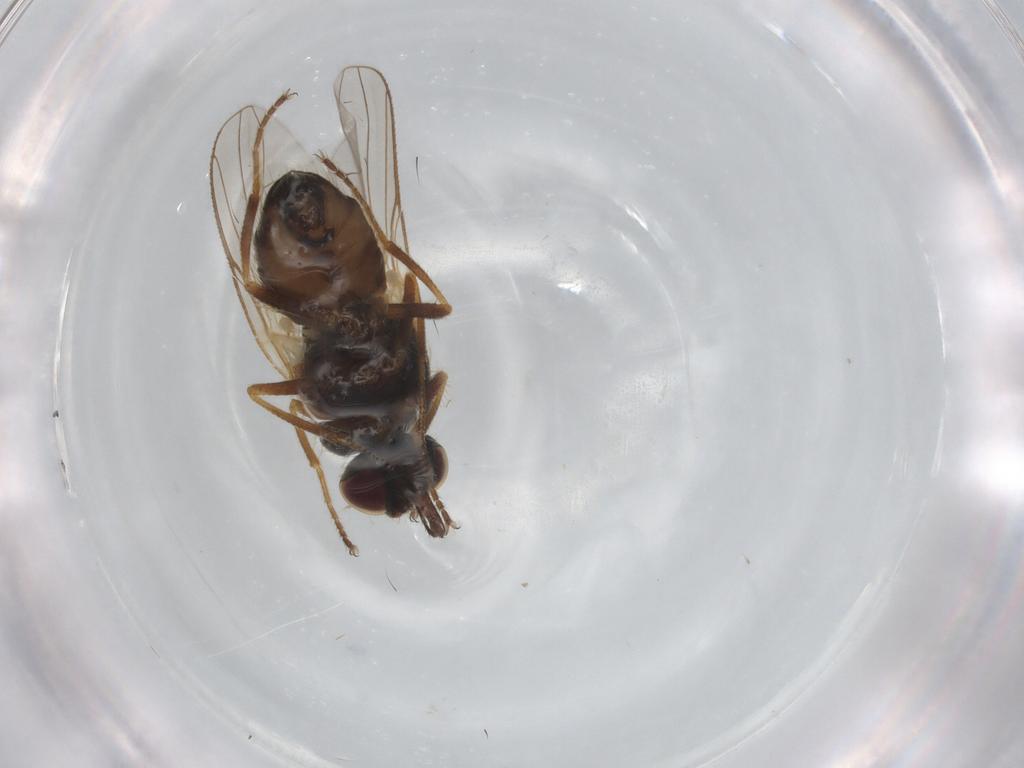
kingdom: Animalia
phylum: Arthropoda
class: Insecta
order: Diptera
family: Muscidae
